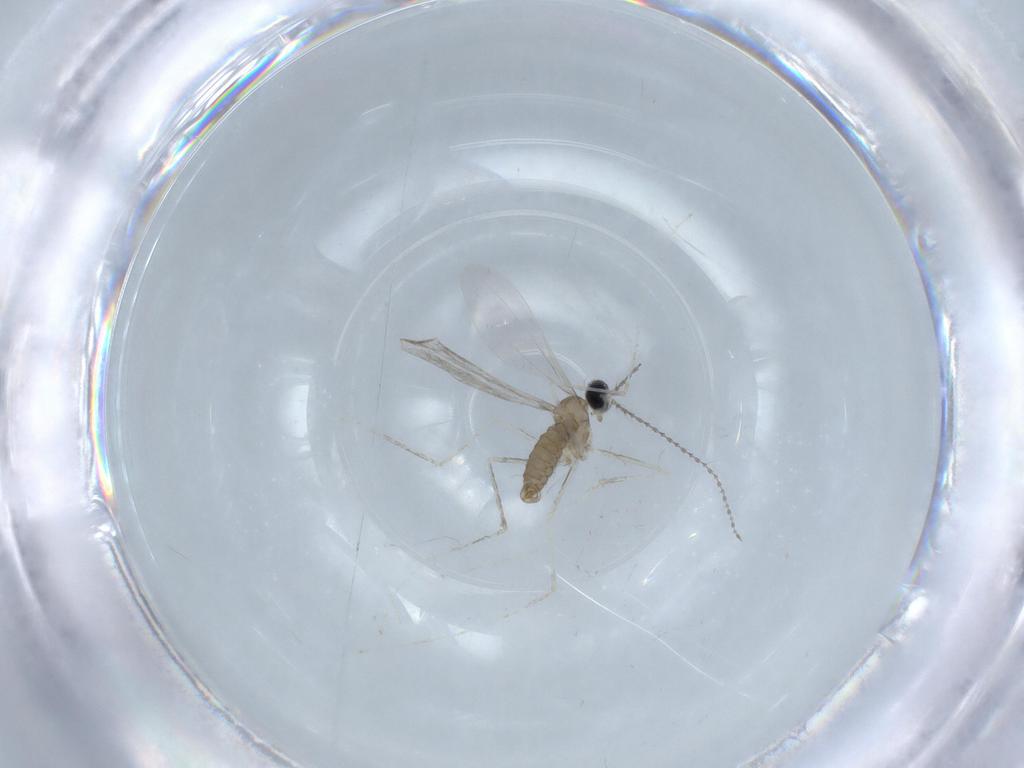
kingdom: Animalia
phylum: Arthropoda
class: Insecta
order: Diptera
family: Cecidomyiidae
